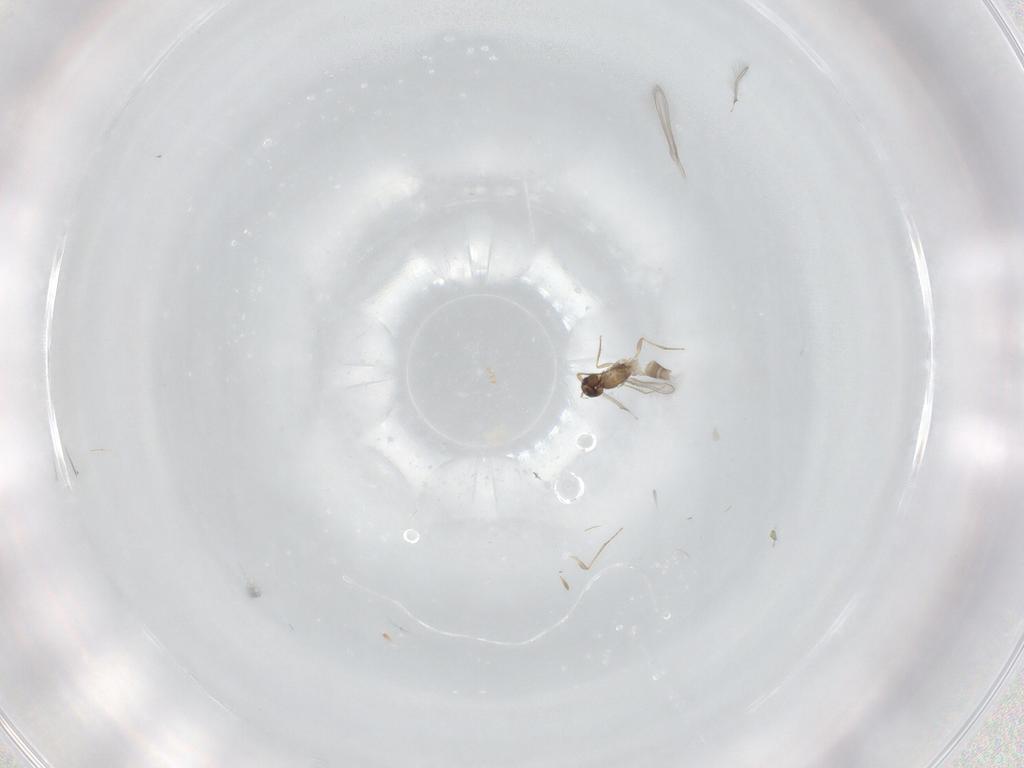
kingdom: Animalia
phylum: Arthropoda
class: Insecta
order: Hymenoptera
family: Mymaridae
